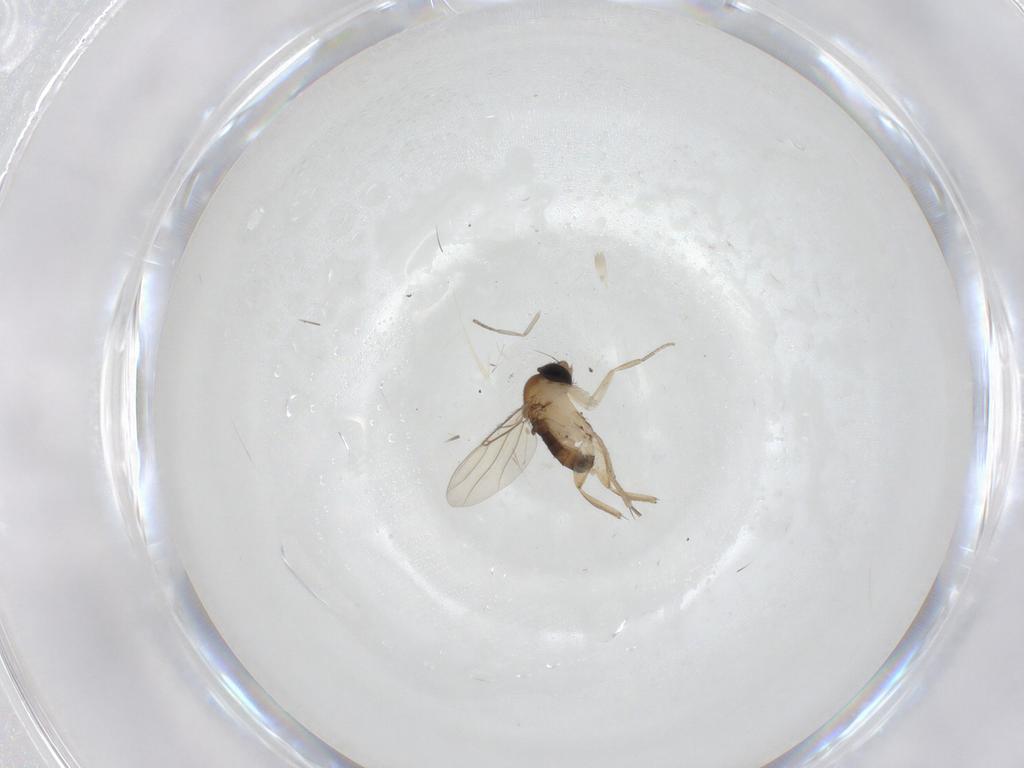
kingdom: Animalia
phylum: Arthropoda
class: Insecta
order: Diptera
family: Phoridae
